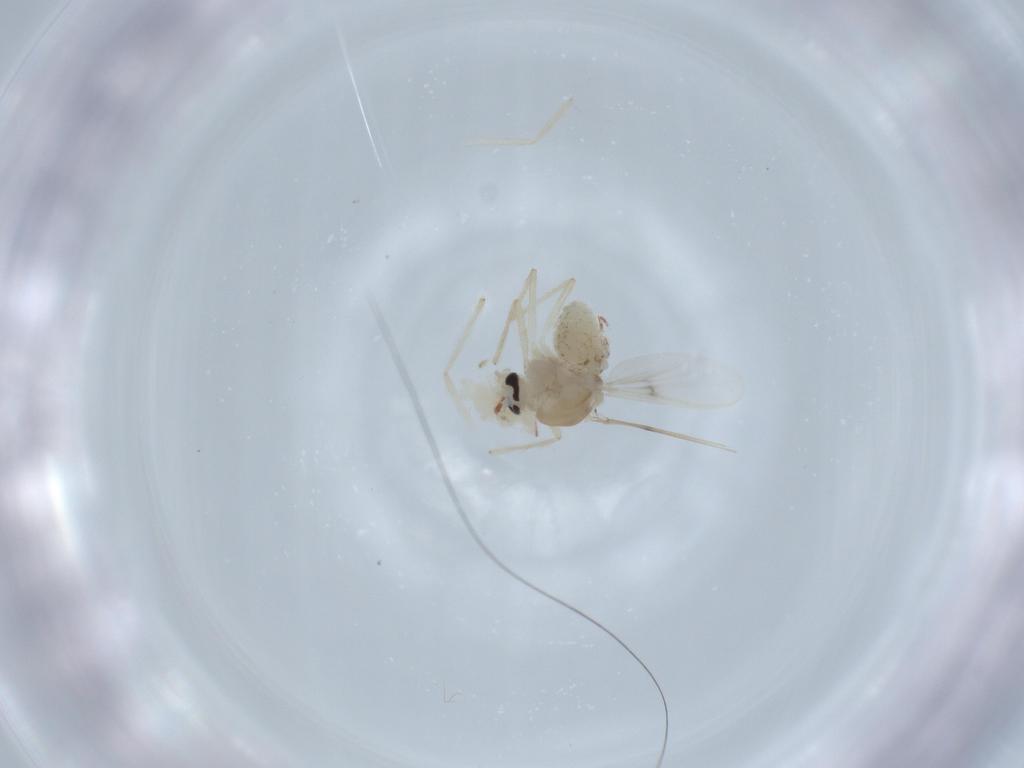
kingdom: Animalia
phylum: Arthropoda
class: Insecta
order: Diptera
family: Chironomidae
